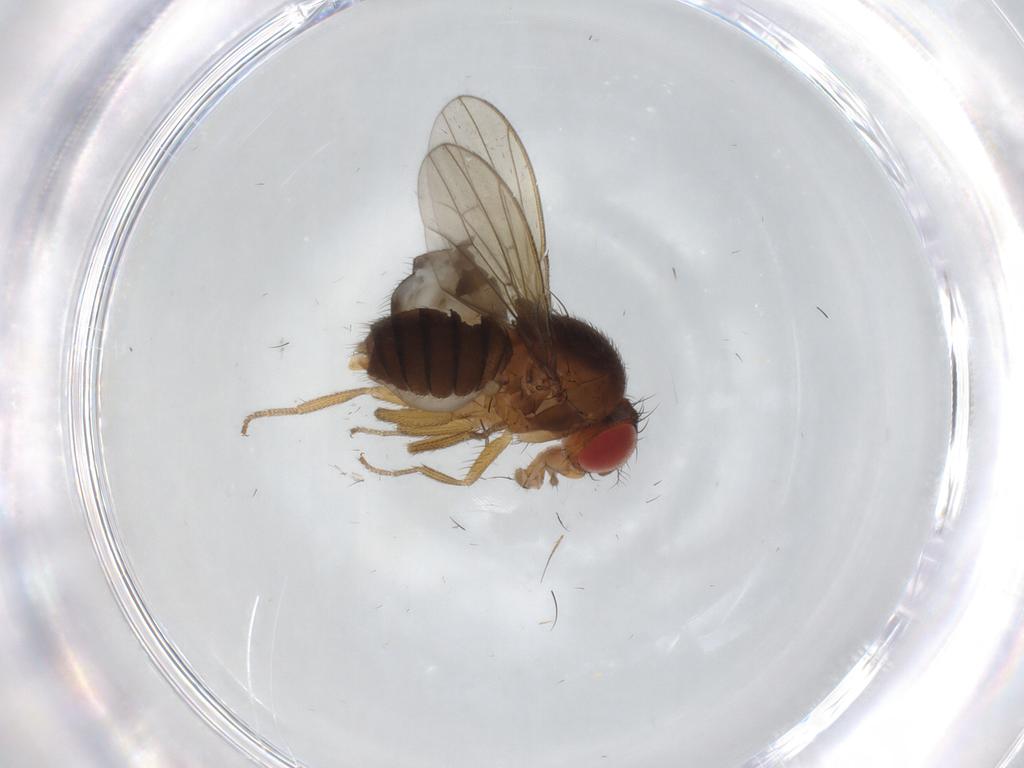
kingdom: Animalia
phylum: Arthropoda
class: Insecta
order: Diptera
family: Drosophilidae
